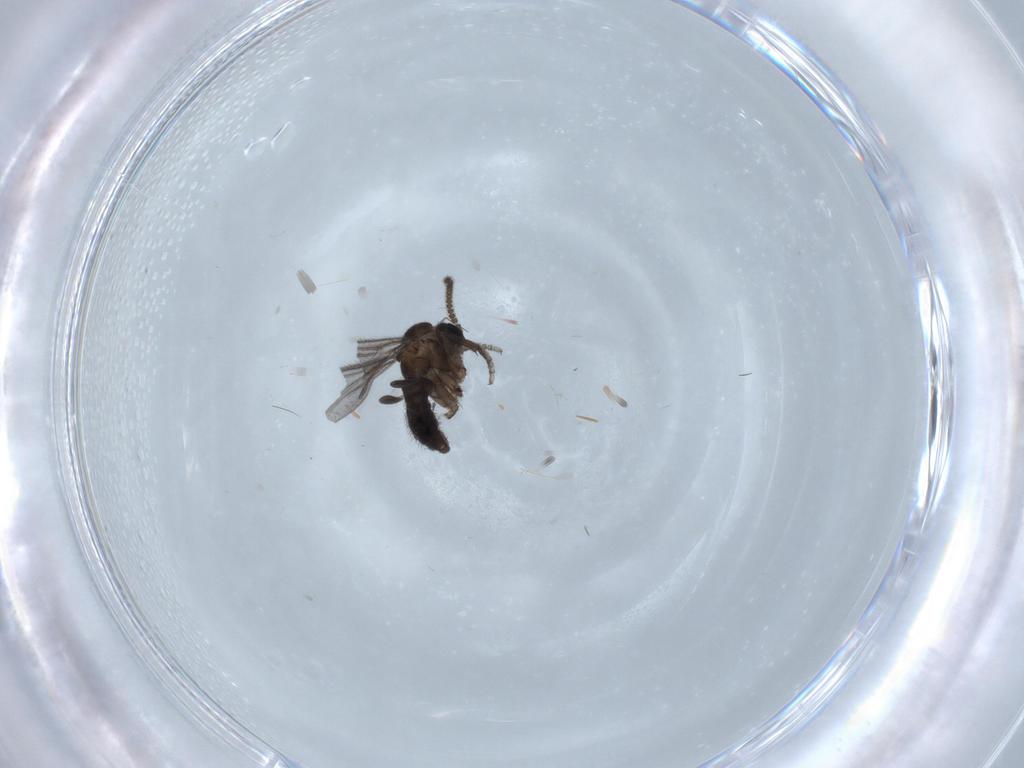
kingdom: Animalia
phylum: Arthropoda
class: Insecta
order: Diptera
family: Sciaridae
